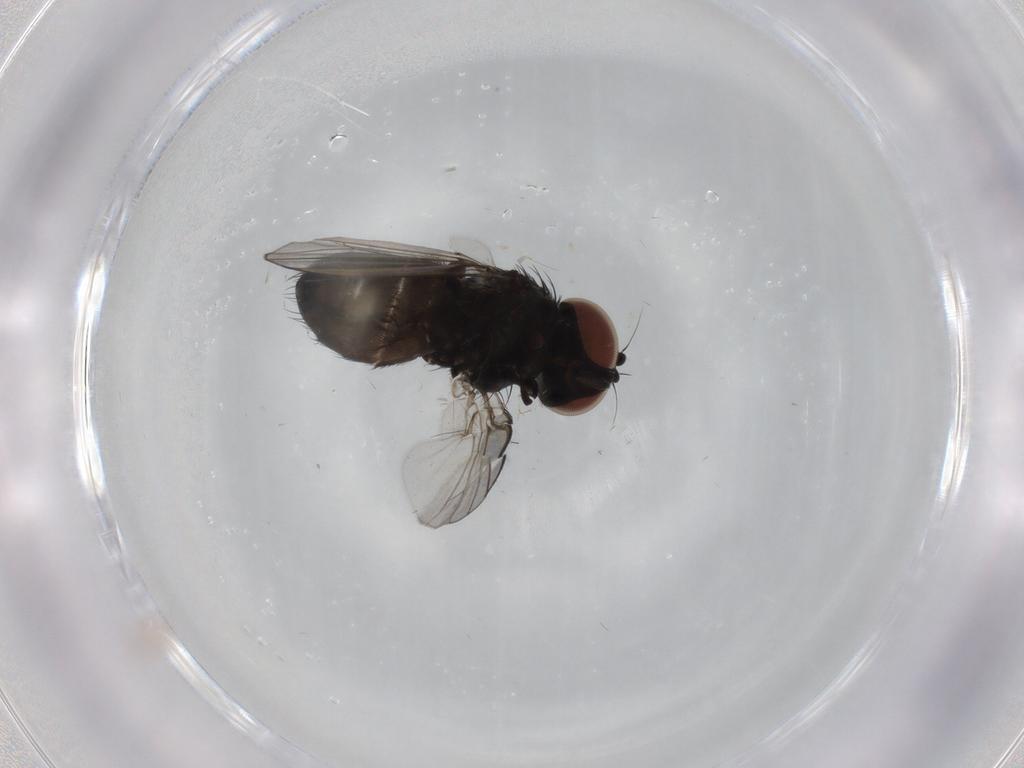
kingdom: Animalia
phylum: Arthropoda
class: Insecta
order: Diptera
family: Milichiidae
